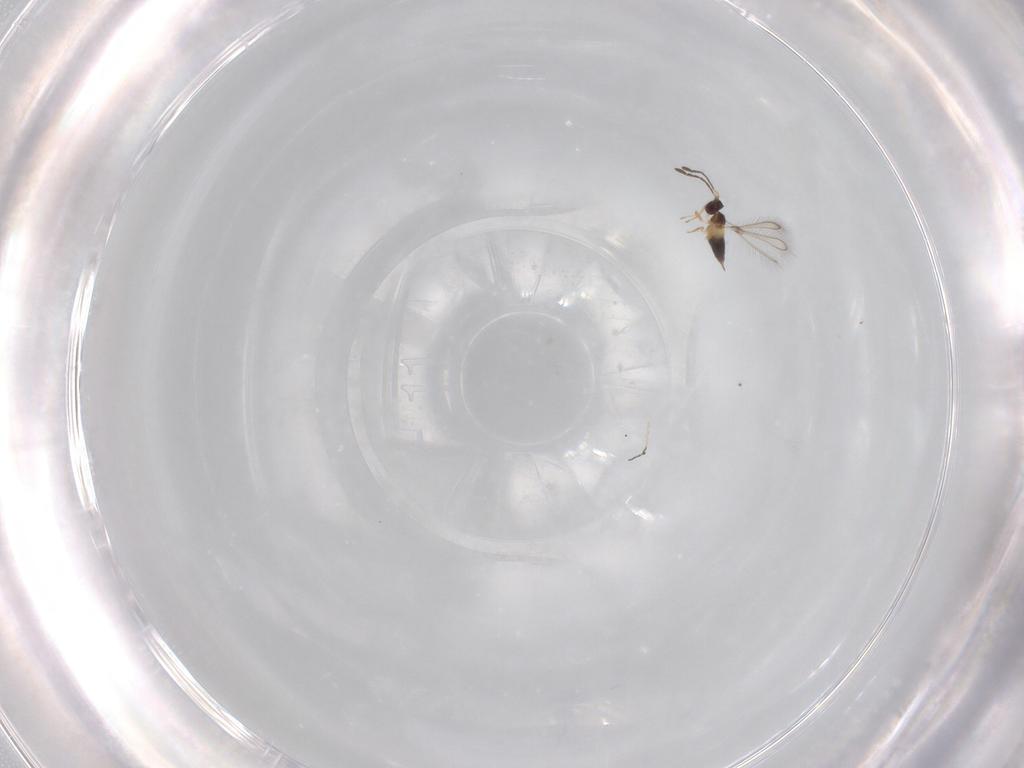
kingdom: Animalia
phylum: Arthropoda
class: Insecta
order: Hymenoptera
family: Mymaridae
